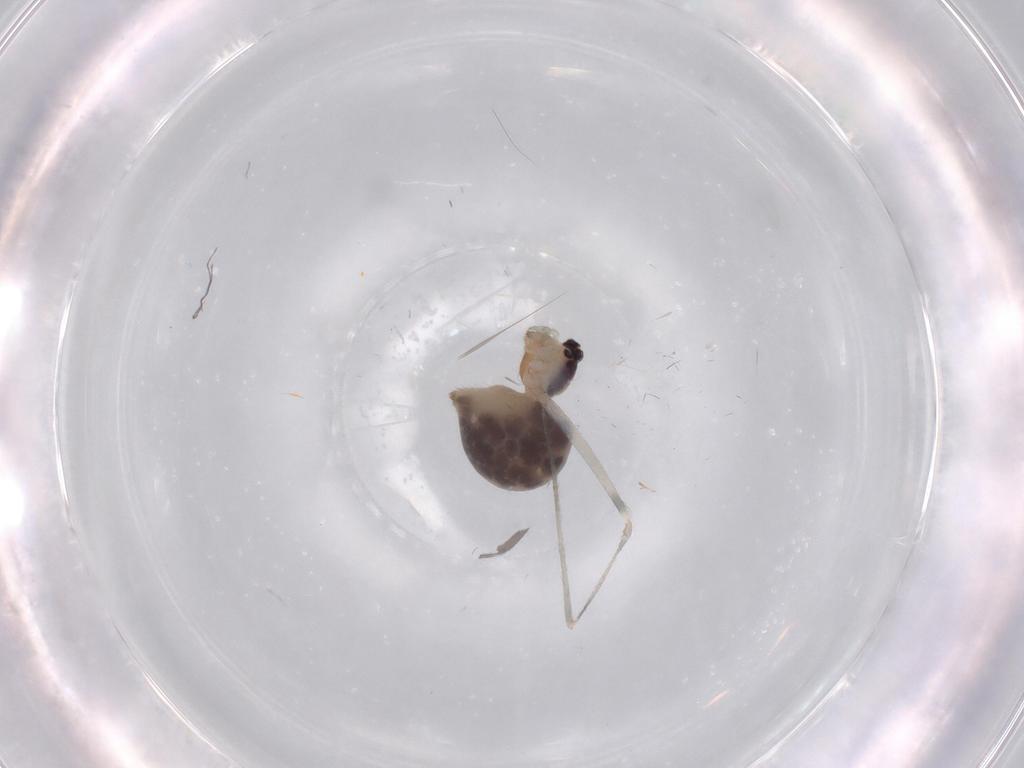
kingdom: Animalia
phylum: Arthropoda
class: Arachnida
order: Araneae
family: Pholcidae
